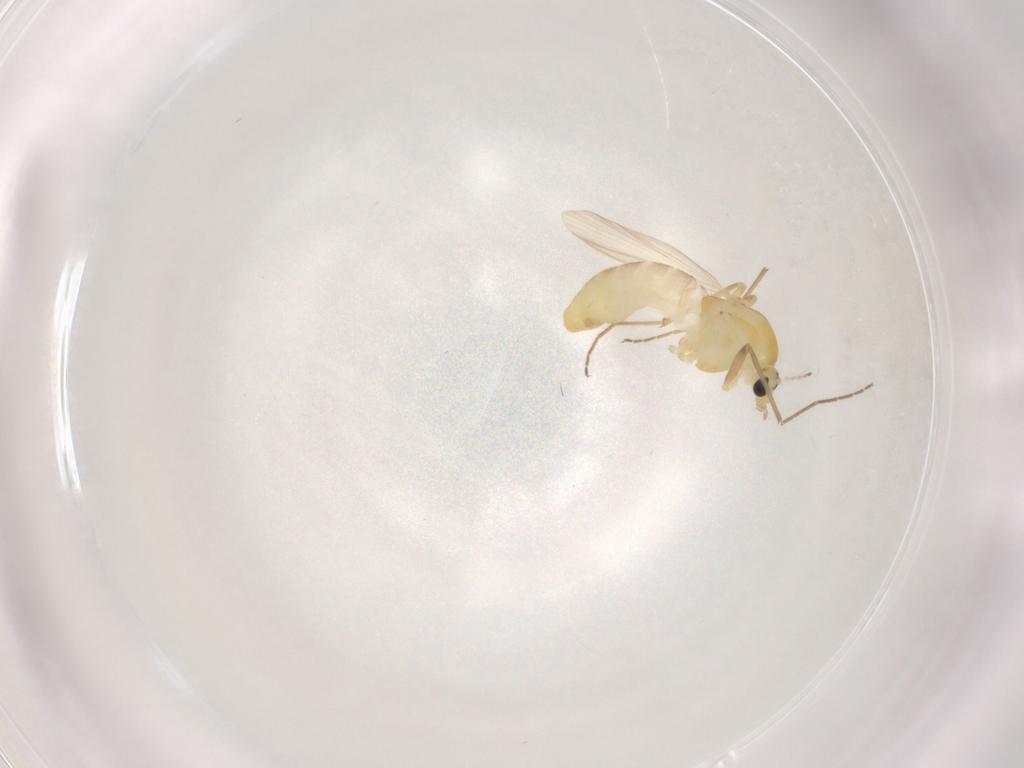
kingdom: Animalia
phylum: Arthropoda
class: Insecta
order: Diptera
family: Chironomidae
